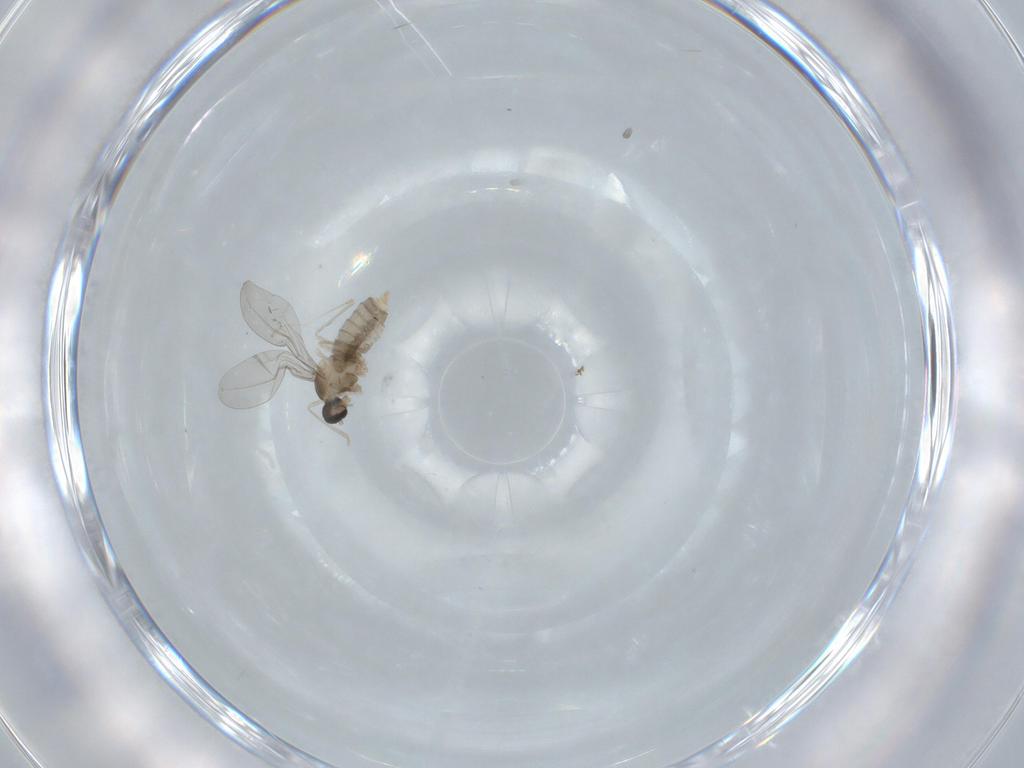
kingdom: Animalia
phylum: Arthropoda
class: Insecta
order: Diptera
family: Cecidomyiidae
